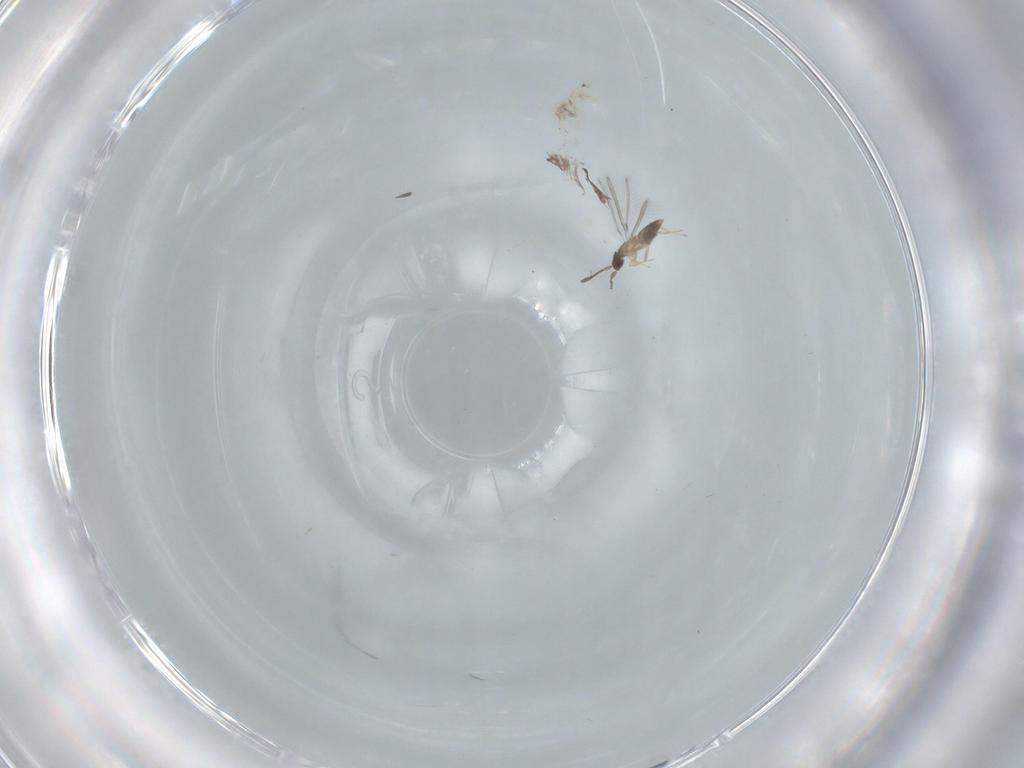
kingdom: Animalia
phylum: Arthropoda
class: Insecta
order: Hymenoptera
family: Mymaridae
